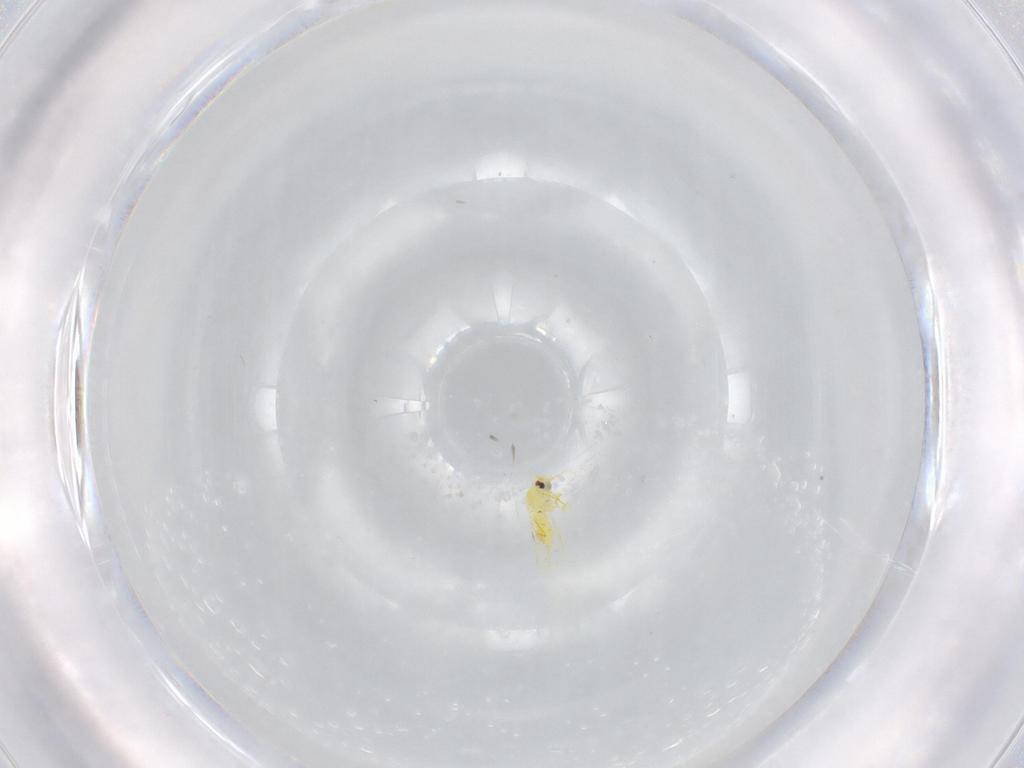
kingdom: Animalia
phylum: Arthropoda
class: Insecta
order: Hemiptera
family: Aleyrodidae
